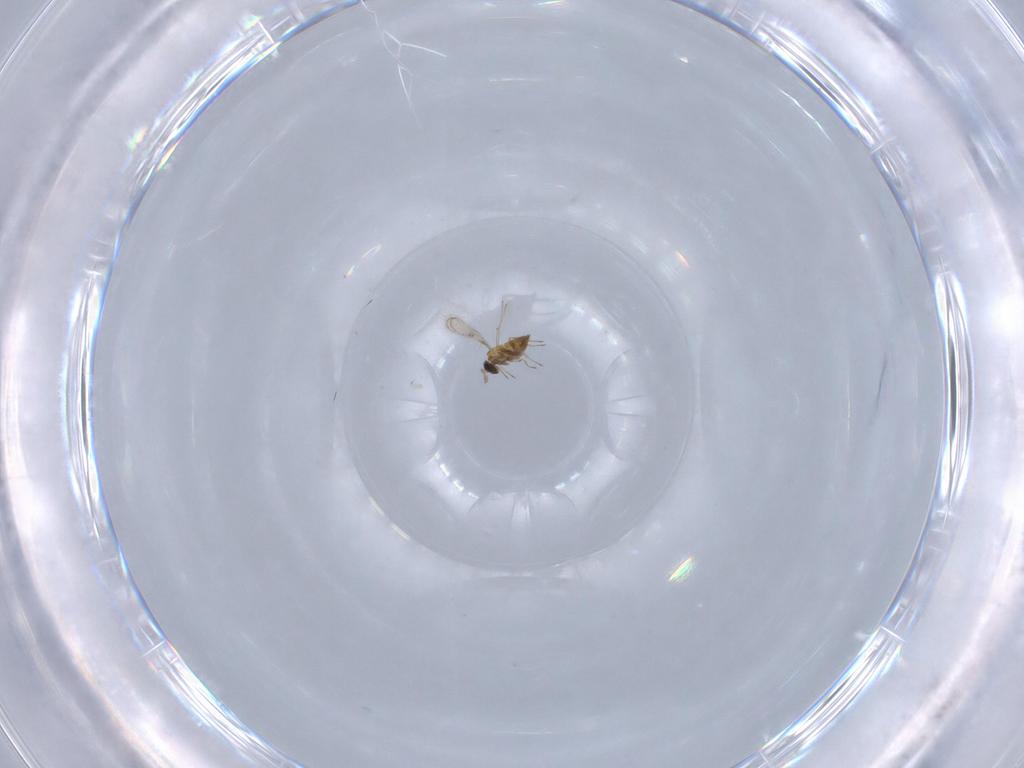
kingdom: Animalia
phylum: Arthropoda
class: Insecta
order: Hymenoptera
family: Trichogrammatidae
